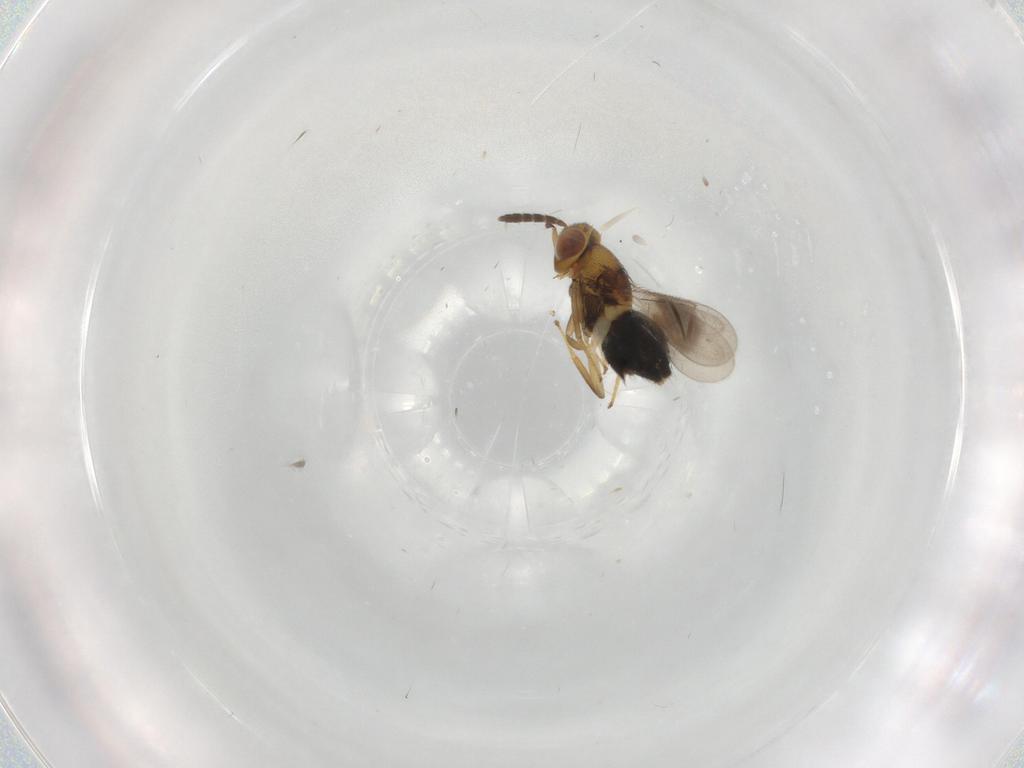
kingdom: Animalia
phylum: Arthropoda
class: Insecta
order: Hymenoptera
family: Aphelinidae
